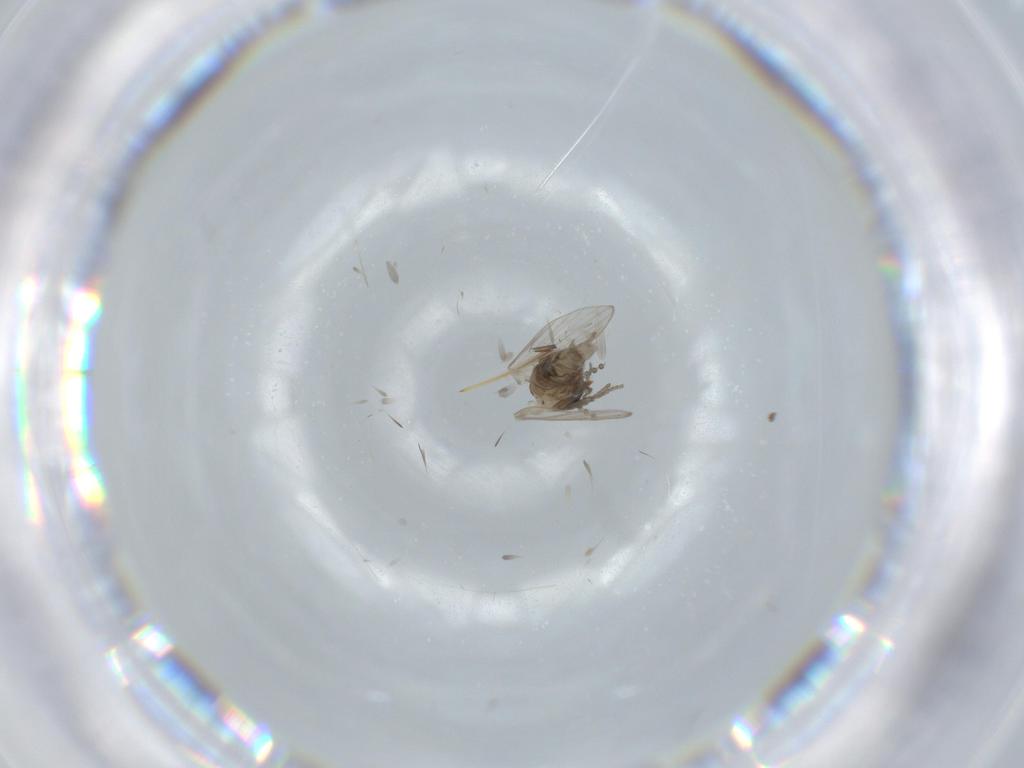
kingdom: Animalia
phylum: Arthropoda
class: Insecta
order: Diptera
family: Psychodidae
